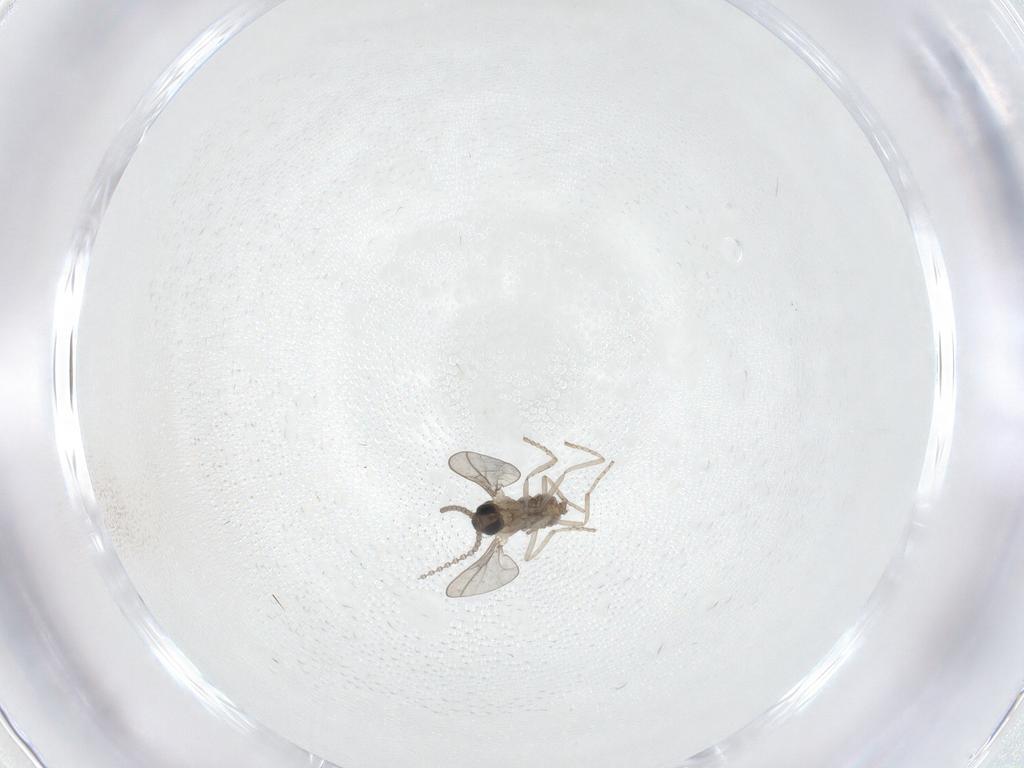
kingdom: Animalia
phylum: Arthropoda
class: Insecta
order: Diptera
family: Cecidomyiidae
